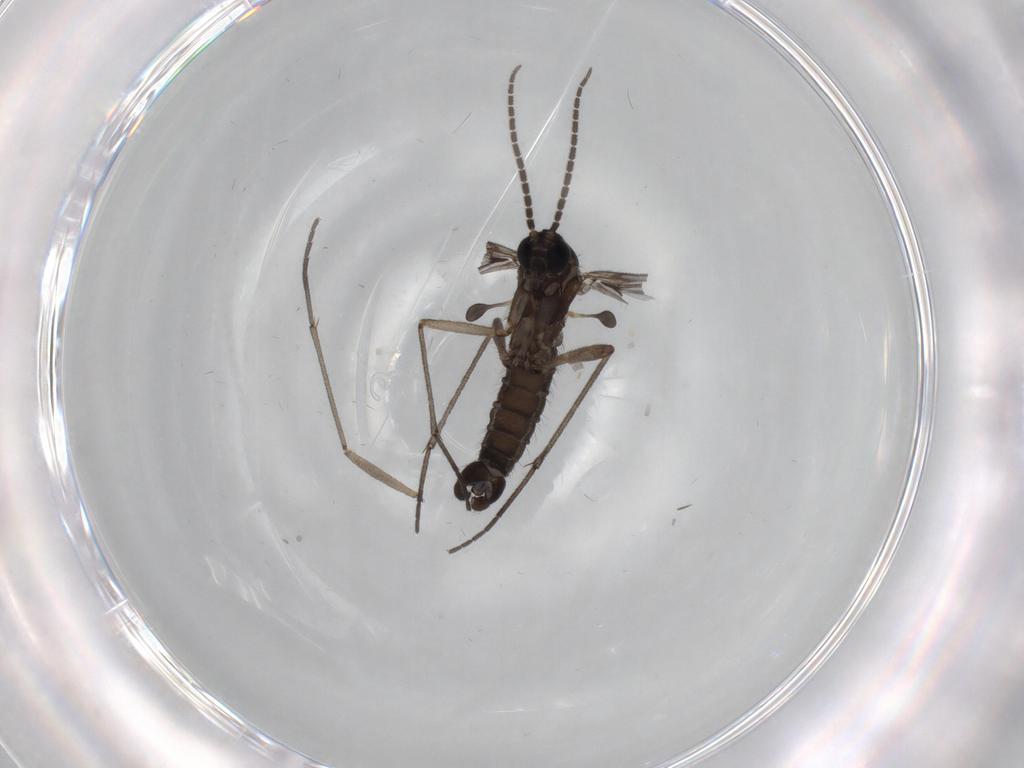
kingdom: Animalia
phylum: Arthropoda
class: Insecta
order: Diptera
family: Sciaridae
